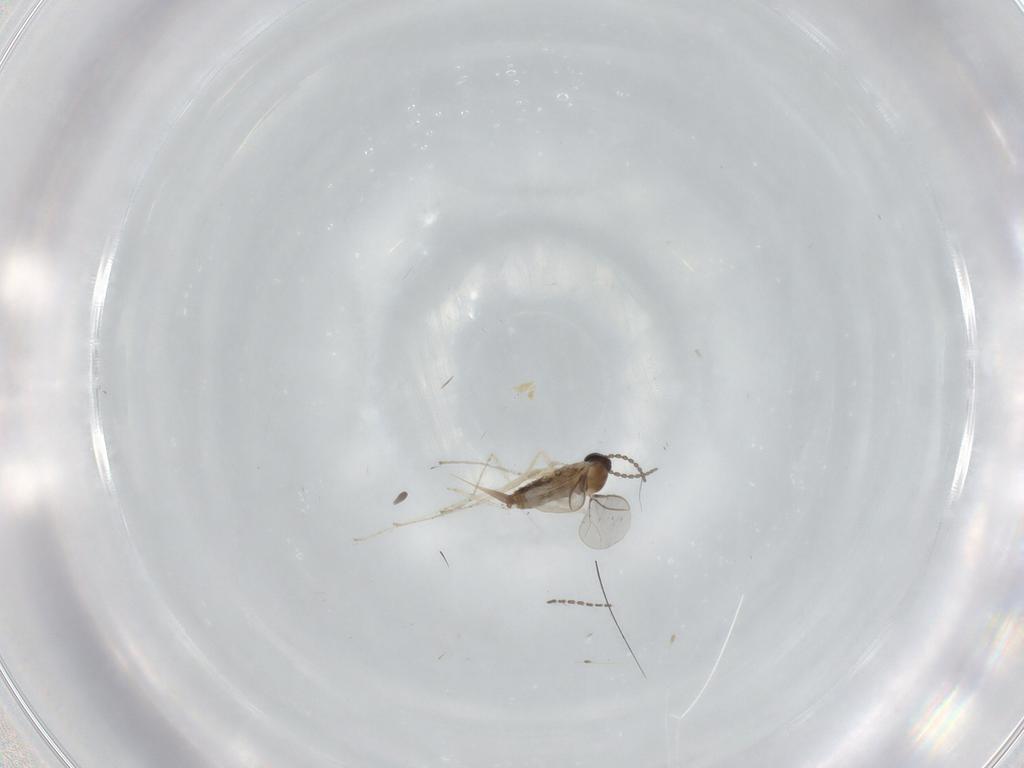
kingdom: Animalia
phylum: Arthropoda
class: Insecta
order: Diptera
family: Cecidomyiidae
